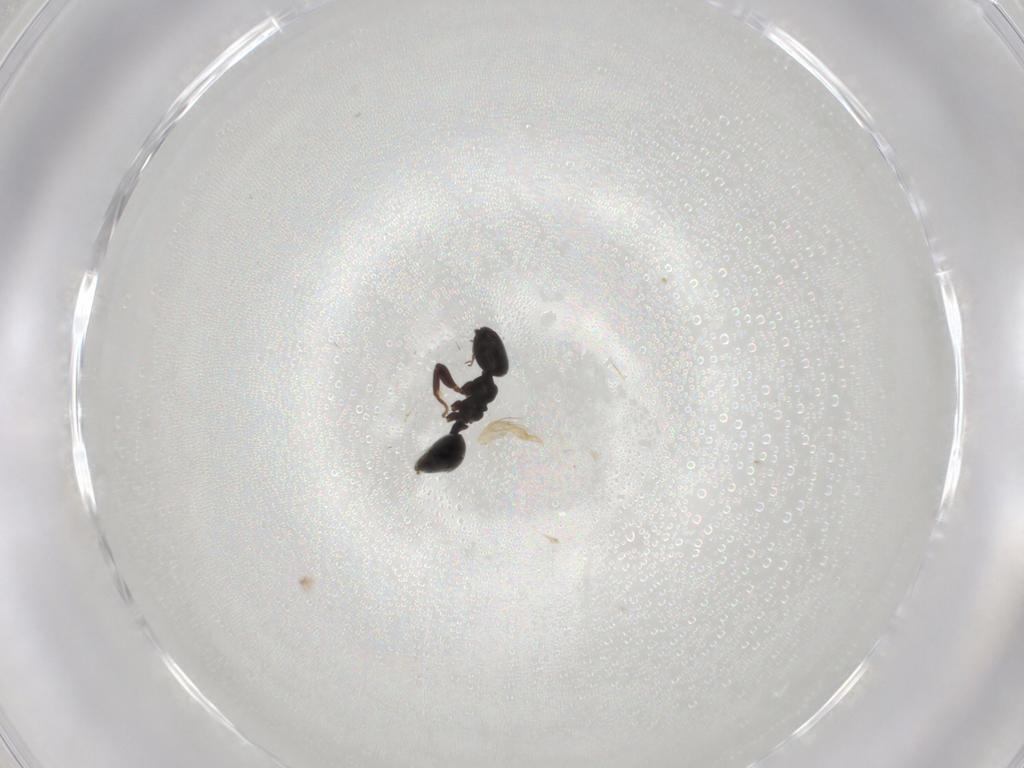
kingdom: Animalia
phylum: Arthropoda
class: Insecta
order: Hymenoptera
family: Formicidae
